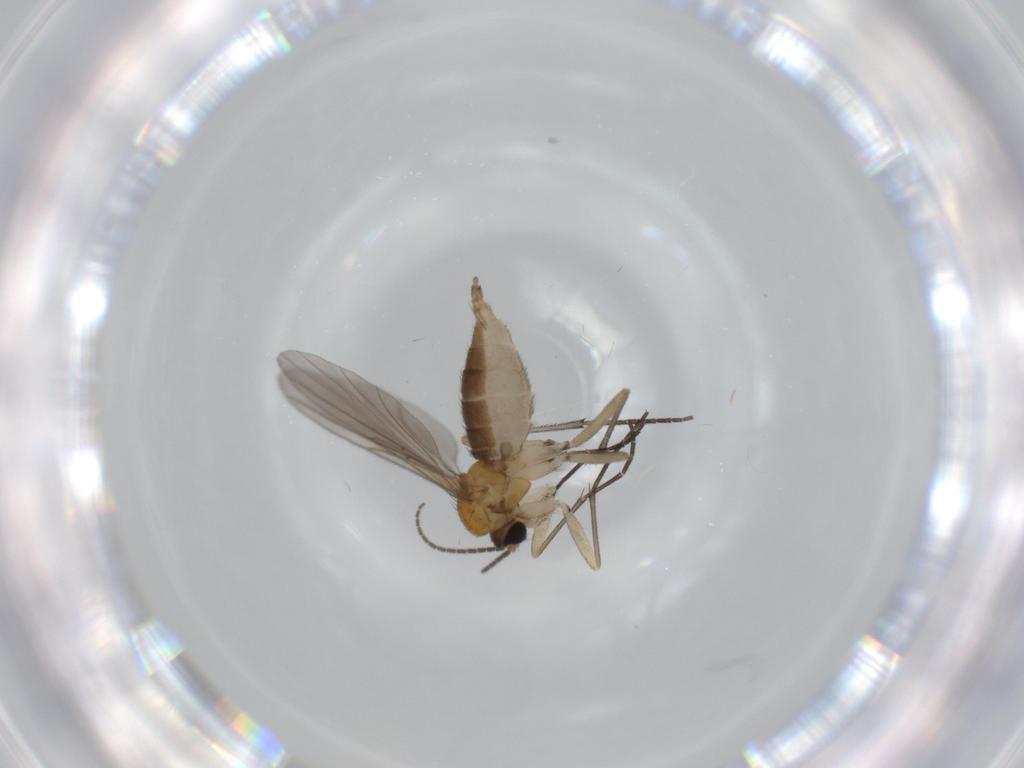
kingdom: Animalia
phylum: Arthropoda
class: Insecta
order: Diptera
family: Sciaridae
